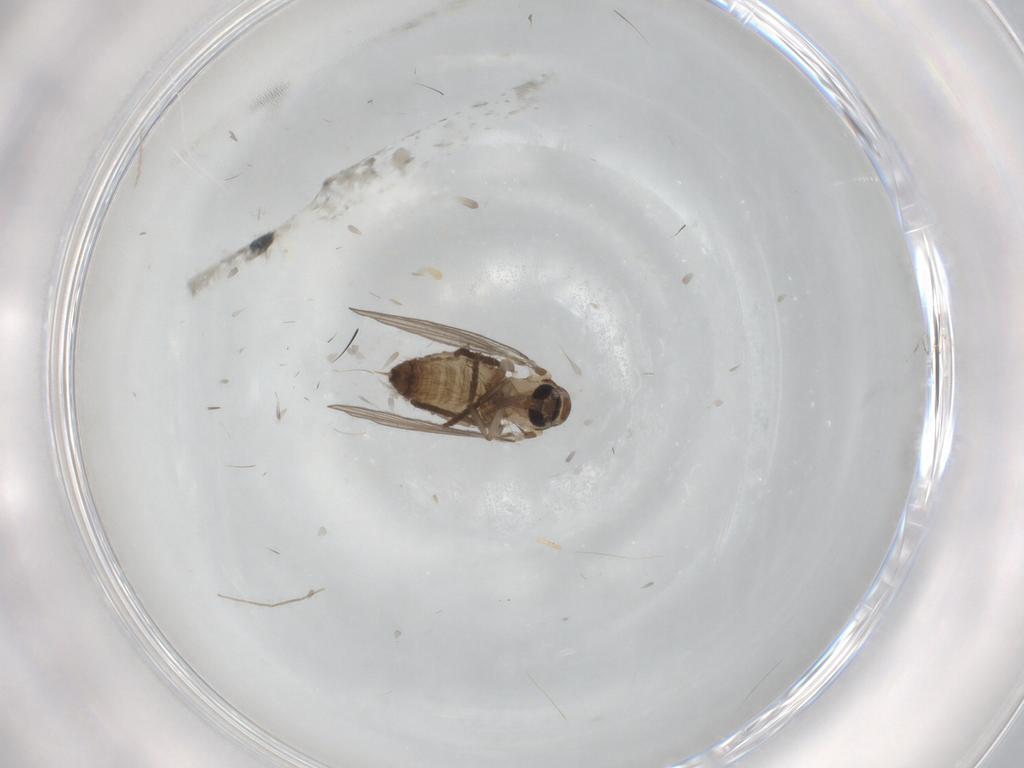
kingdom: Animalia
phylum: Arthropoda
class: Insecta
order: Diptera
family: Psychodidae
